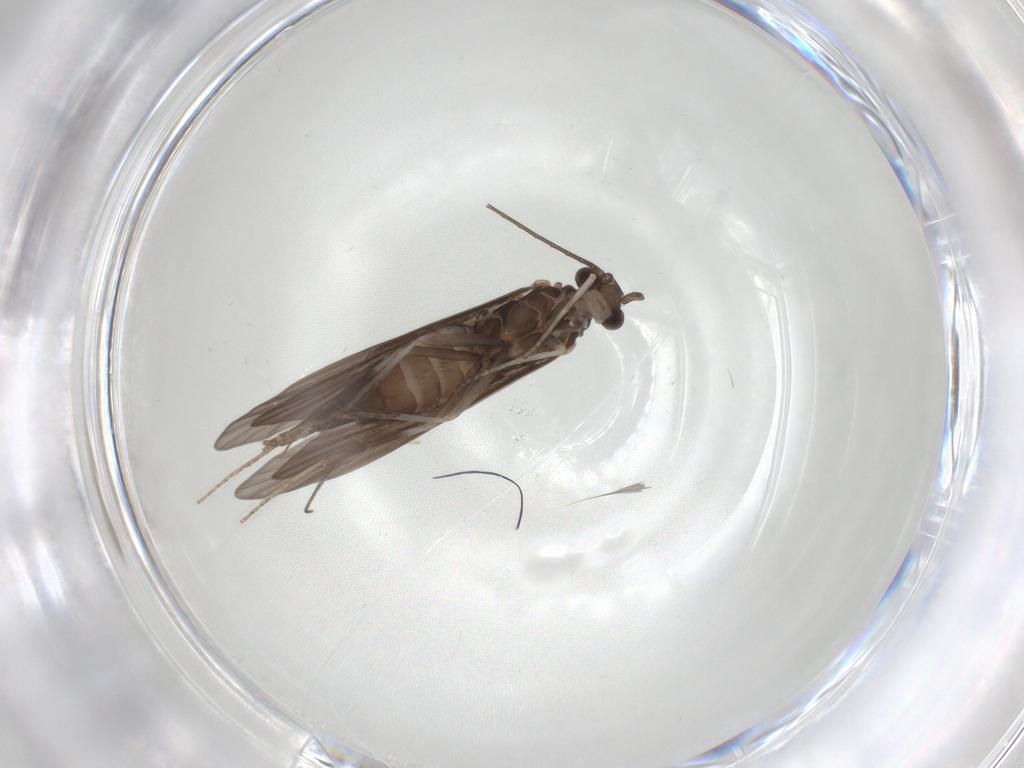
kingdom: Animalia
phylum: Arthropoda
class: Insecta
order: Trichoptera
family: Xiphocentronidae
